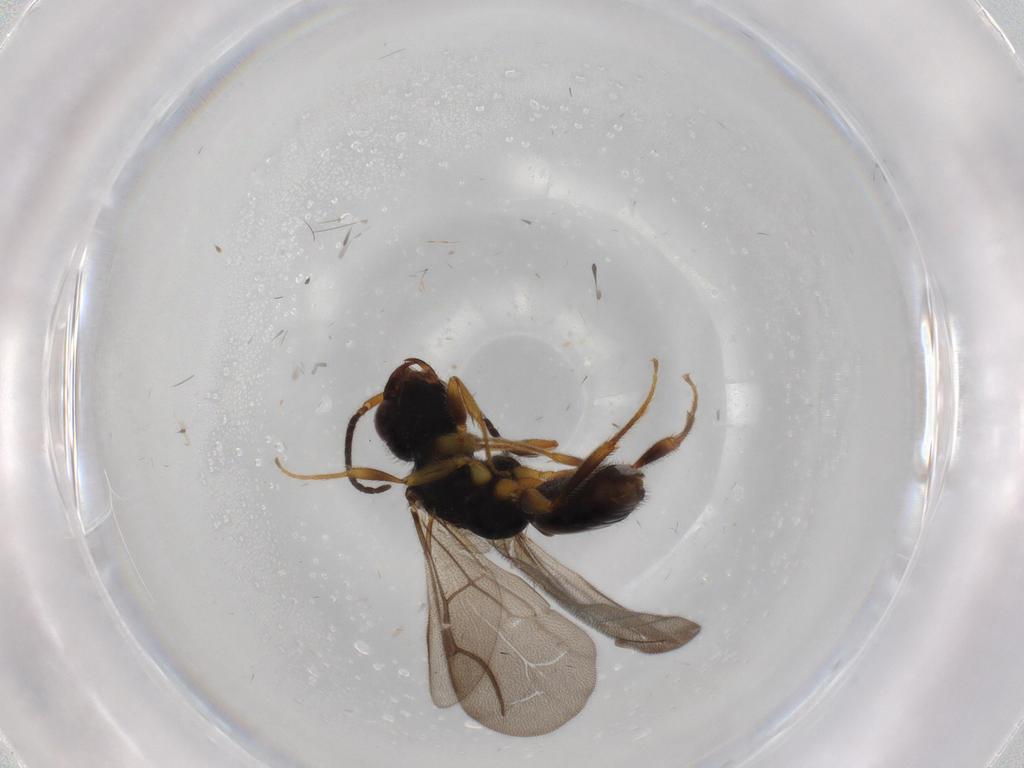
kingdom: Animalia
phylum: Arthropoda
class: Insecta
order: Hymenoptera
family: Bethylidae
